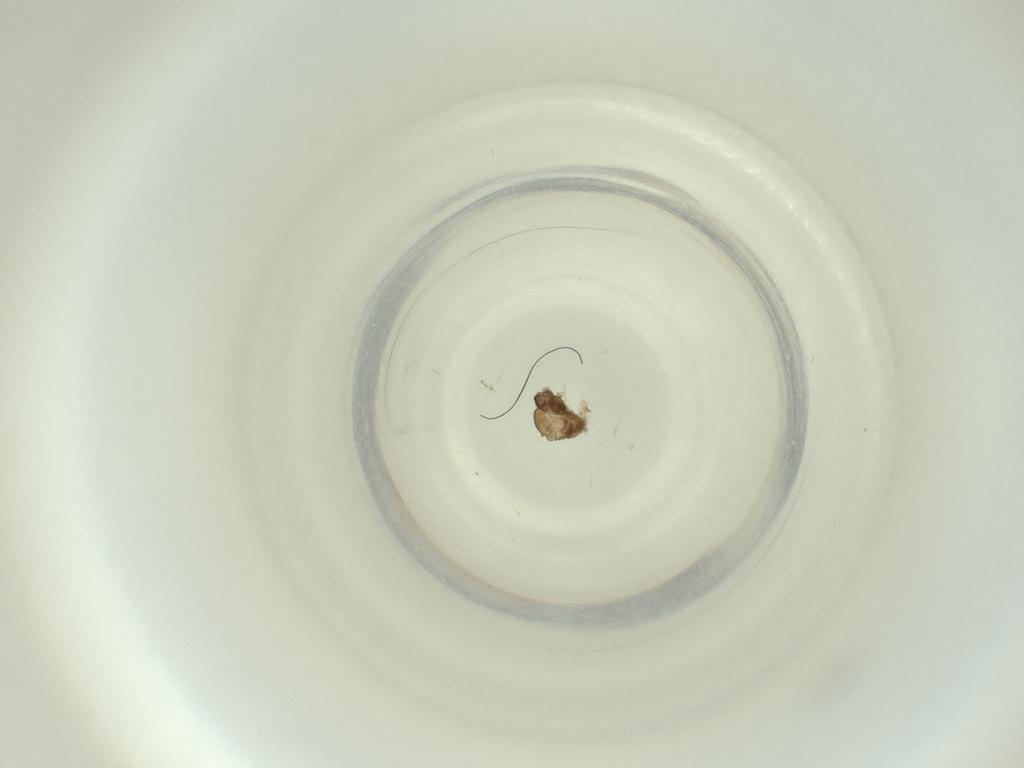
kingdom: Animalia
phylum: Arthropoda
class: Insecta
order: Diptera
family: Cecidomyiidae
